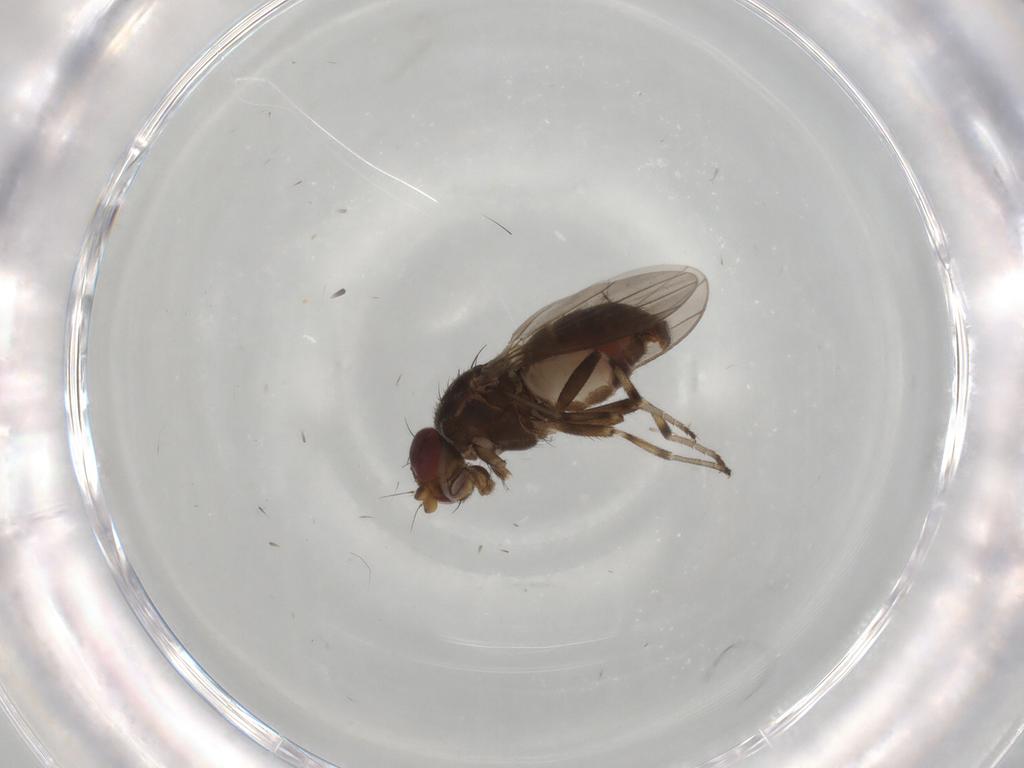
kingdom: Animalia
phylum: Arthropoda
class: Insecta
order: Diptera
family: Heleomyzidae
